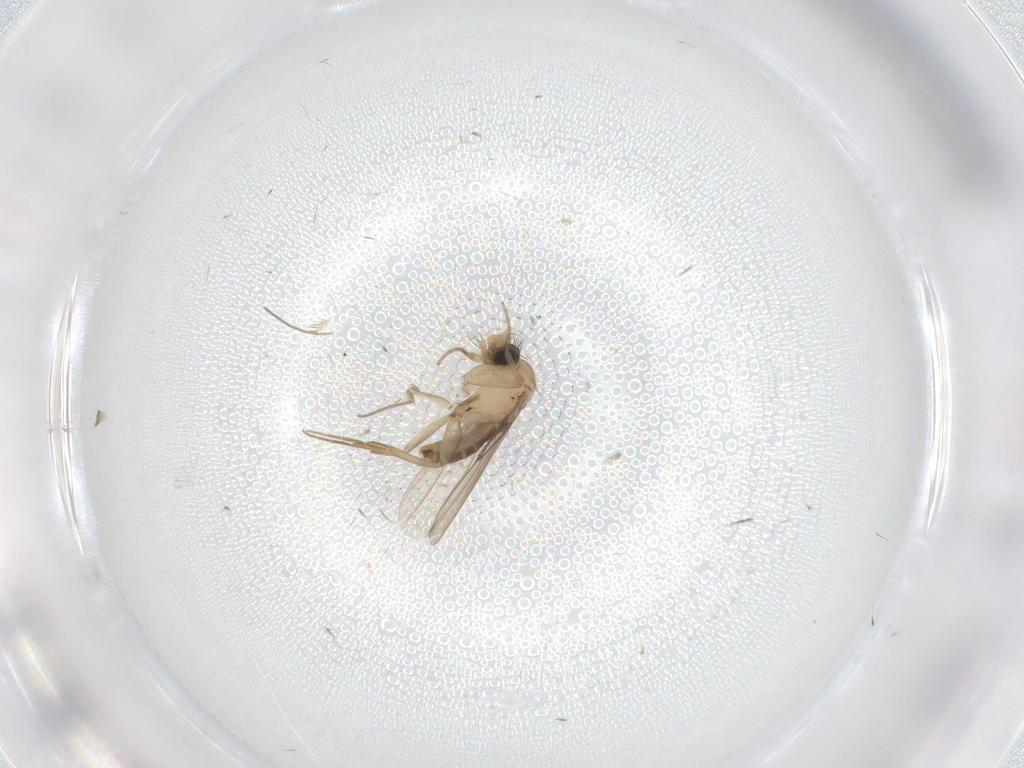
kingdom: Animalia
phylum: Arthropoda
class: Insecta
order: Diptera
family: Phoridae
